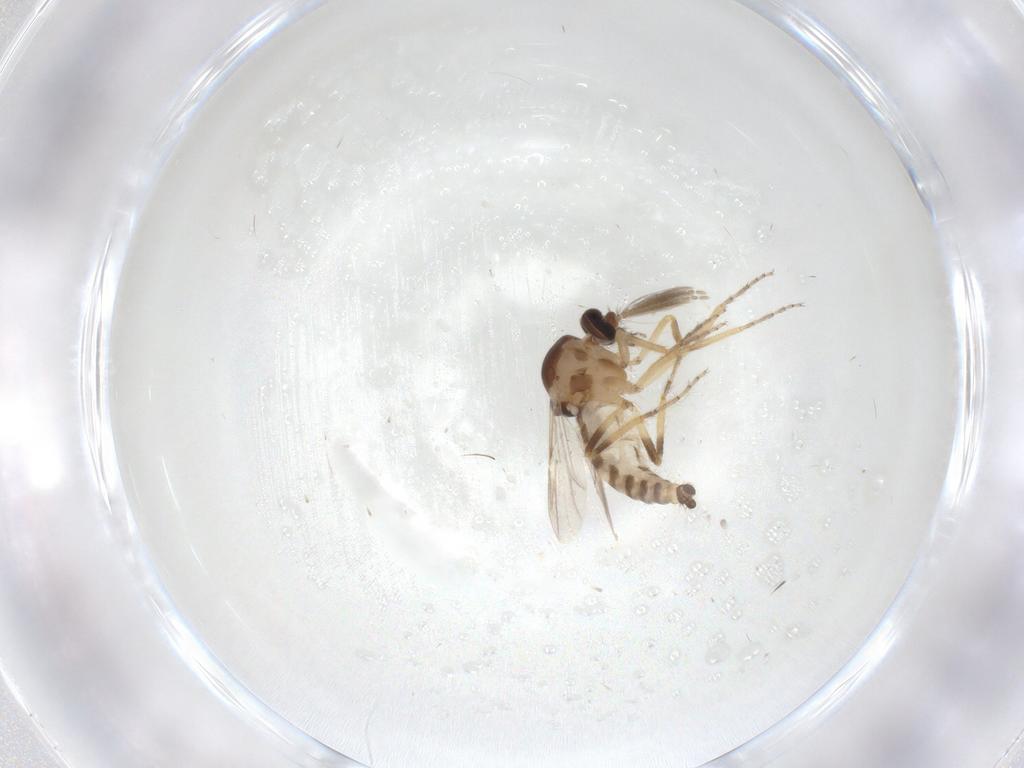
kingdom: Animalia
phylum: Arthropoda
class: Insecta
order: Diptera
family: Ceratopogonidae
